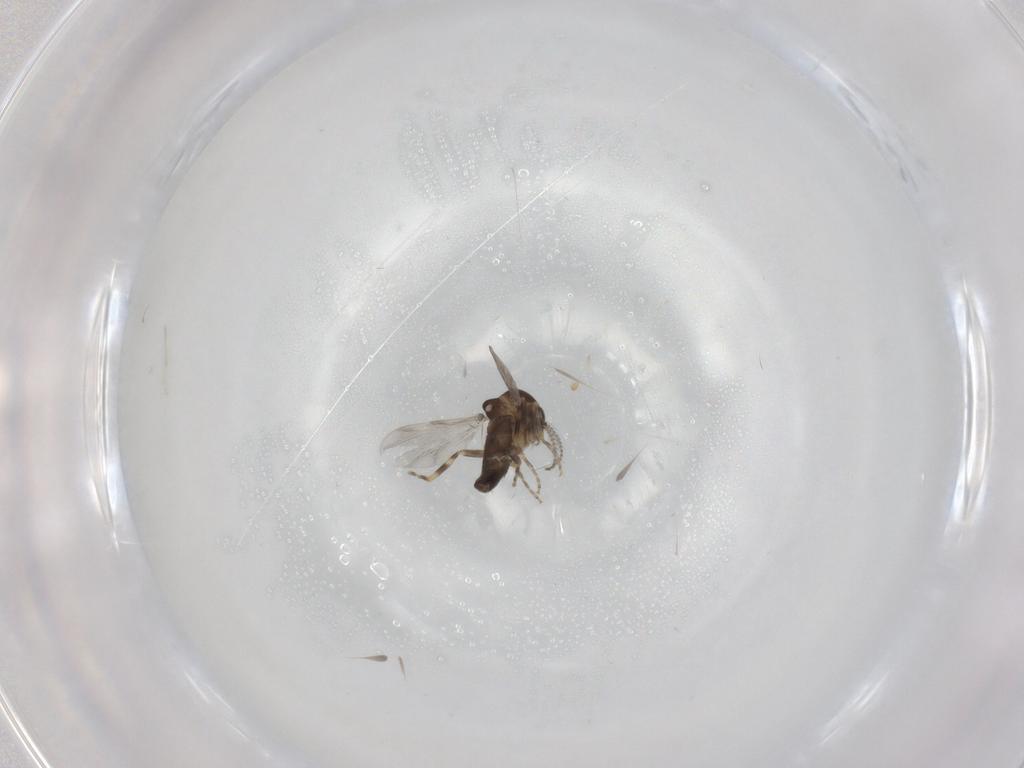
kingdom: Animalia
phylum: Arthropoda
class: Insecta
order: Diptera
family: Ceratopogonidae
